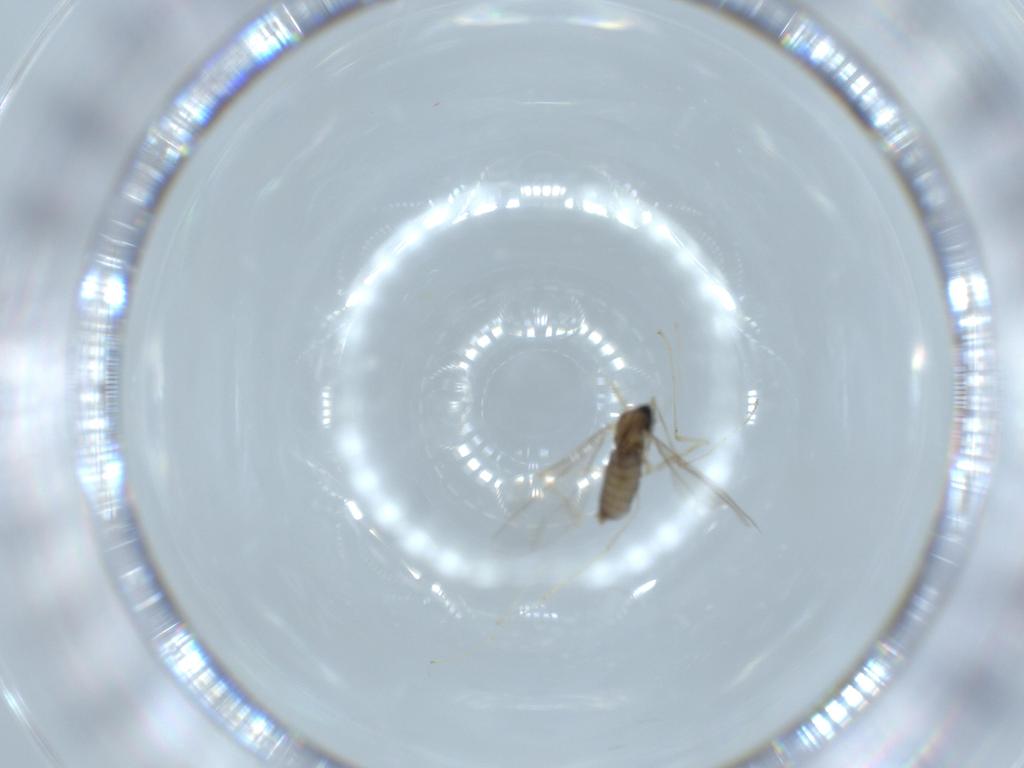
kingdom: Animalia
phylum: Arthropoda
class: Insecta
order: Diptera
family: Cecidomyiidae
